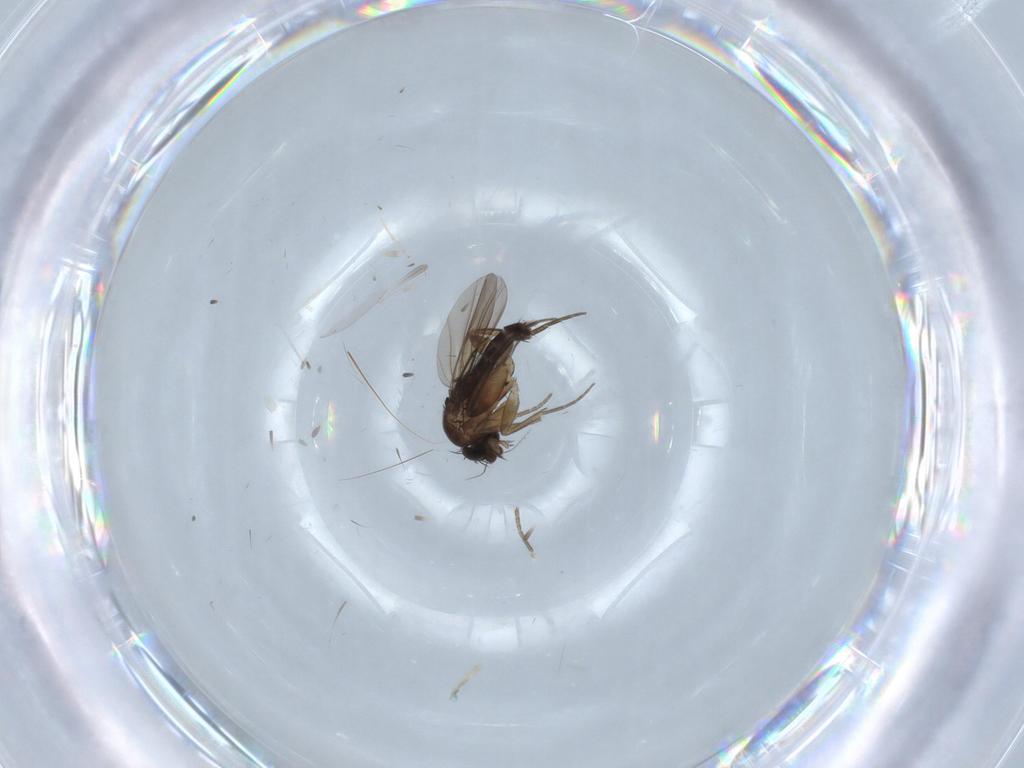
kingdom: Animalia
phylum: Arthropoda
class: Insecta
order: Diptera
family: Phoridae
